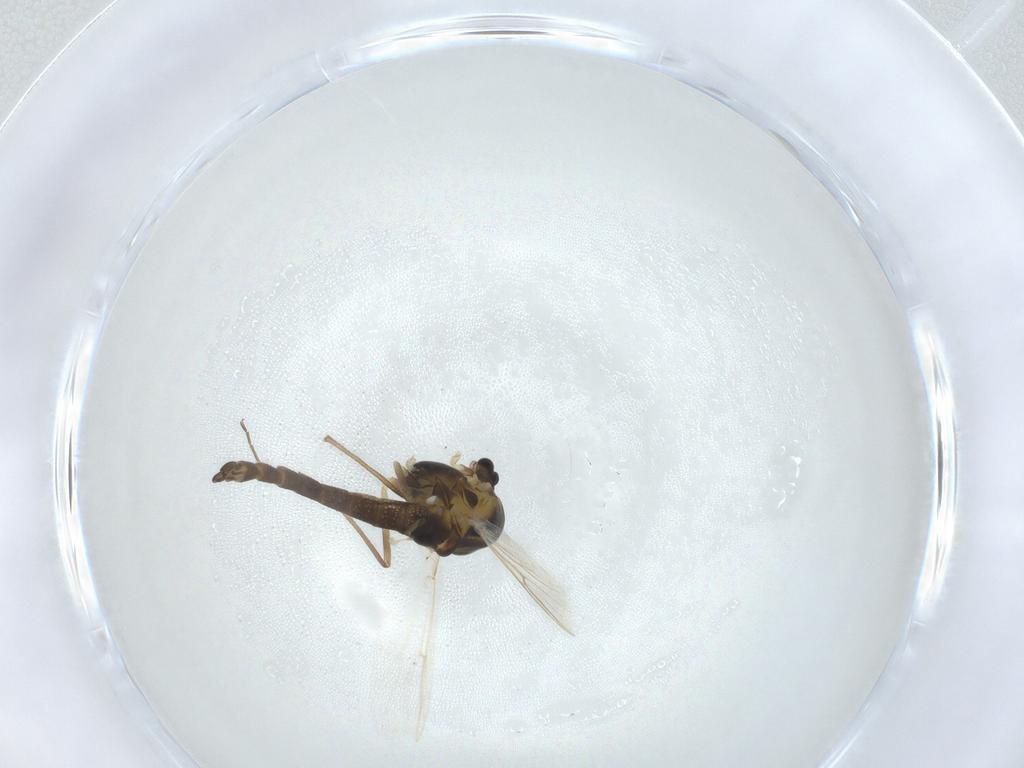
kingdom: Animalia
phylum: Arthropoda
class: Insecta
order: Diptera
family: Chironomidae
